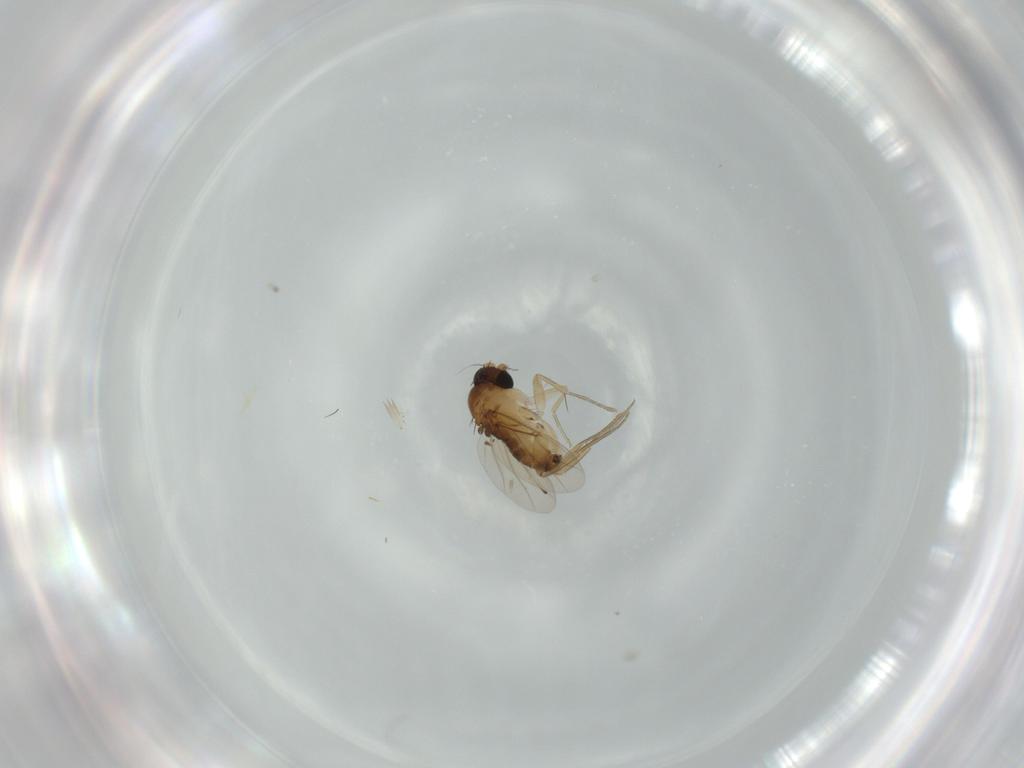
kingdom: Animalia
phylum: Arthropoda
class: Insecta
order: Diptera
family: Phoridae
